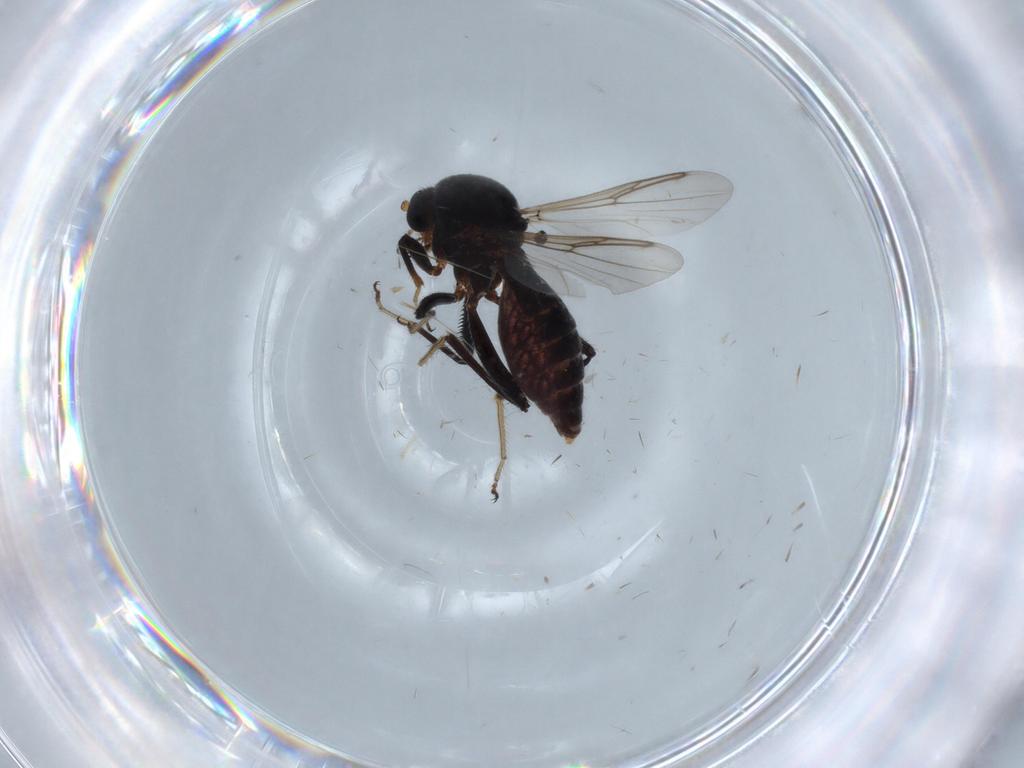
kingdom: Animalia
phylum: Arthropoda
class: Insecta
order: Diptera
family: Ceratopogonidae
